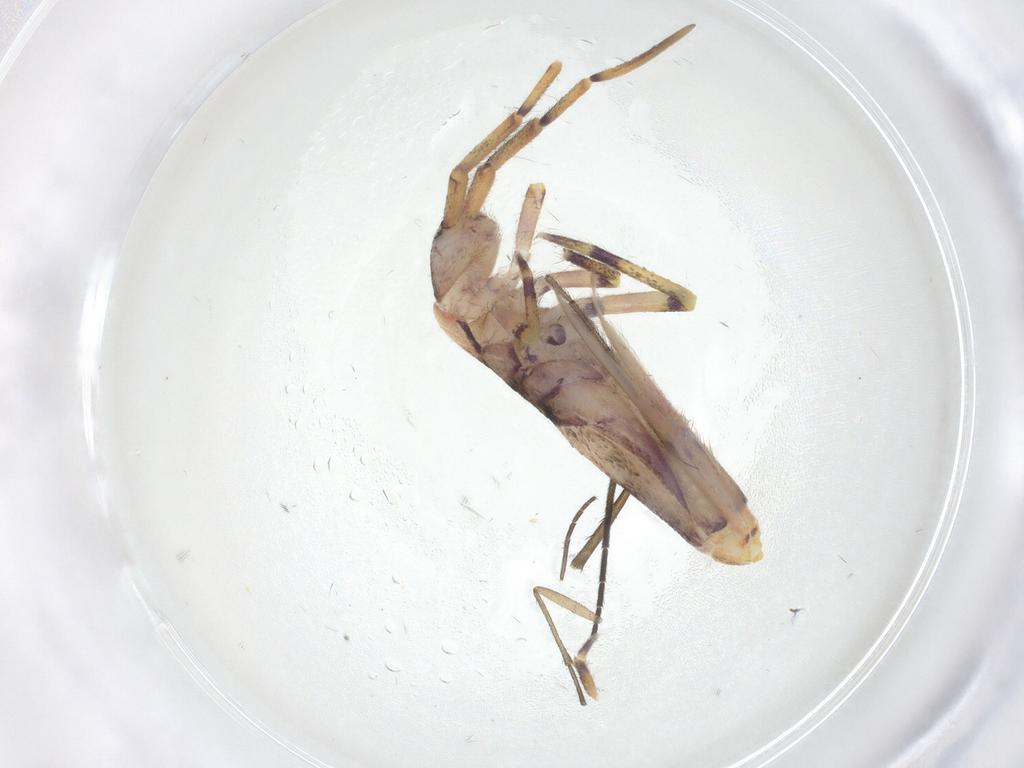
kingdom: Animalia
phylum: Arthropoda
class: Collembola
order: Entomobryomorpha
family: Entomobryidae
